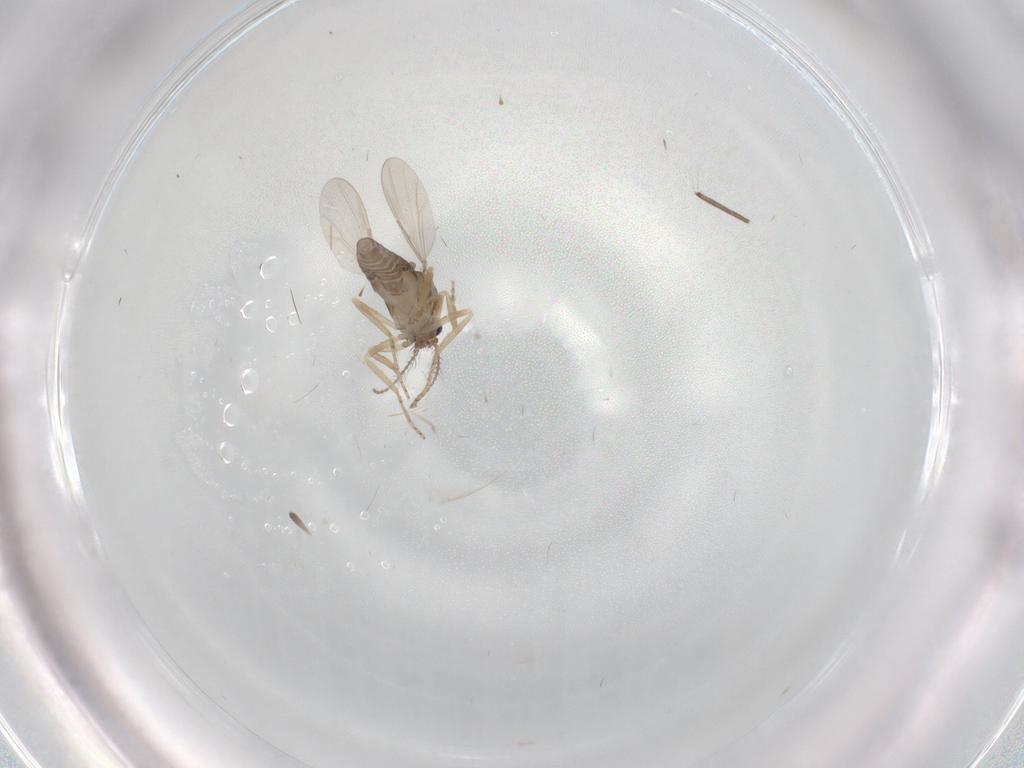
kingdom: Animalia
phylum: Arthropoda
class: Insecta
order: Diptera
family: Ceratopogonidae
